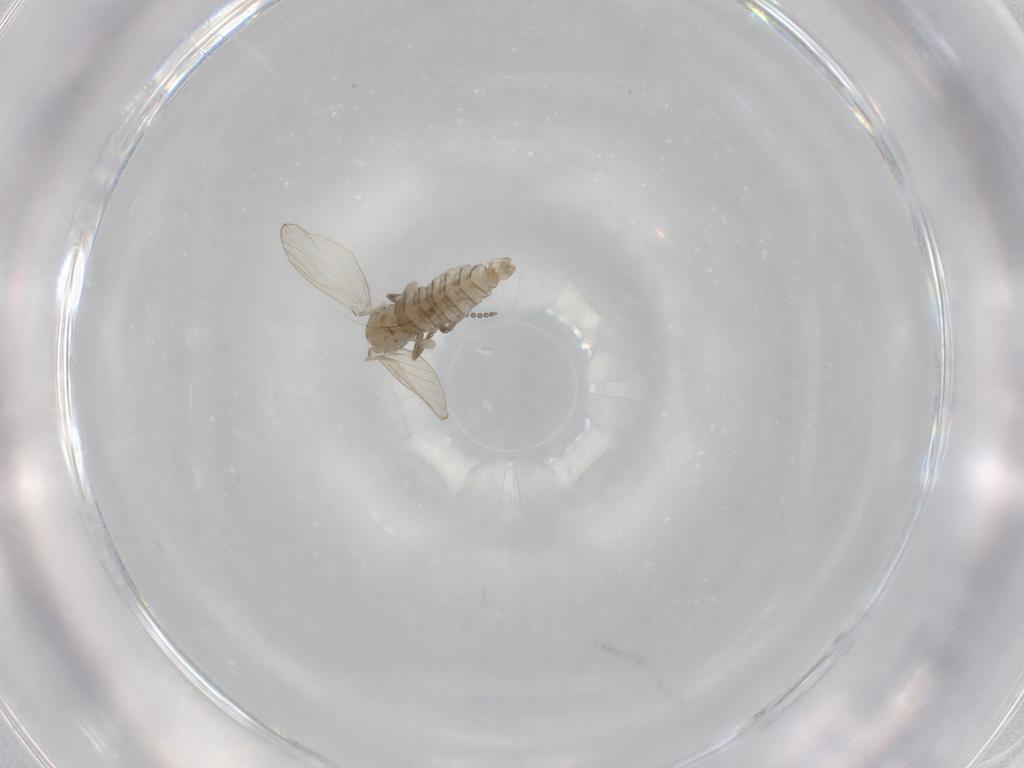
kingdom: Animalia
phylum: Arthropoda
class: Insecta
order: Diptera
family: Psychodidae
